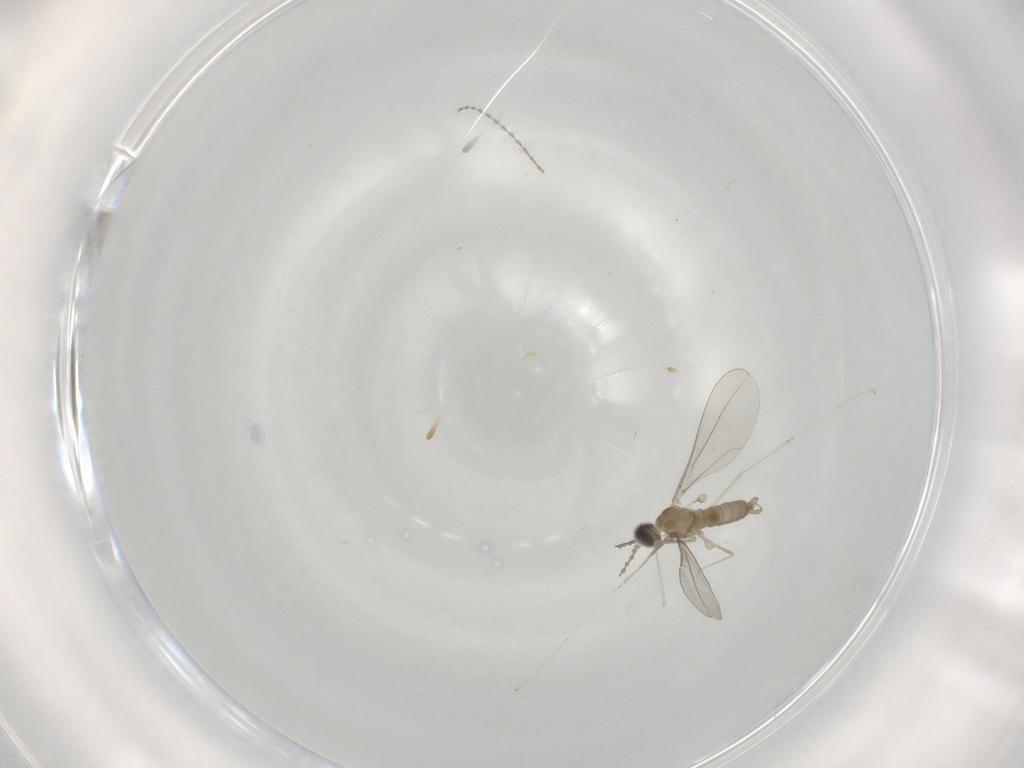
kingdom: Animalia
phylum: Arthropoda
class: Insecta
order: Diptera
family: Cecidomyiidae
